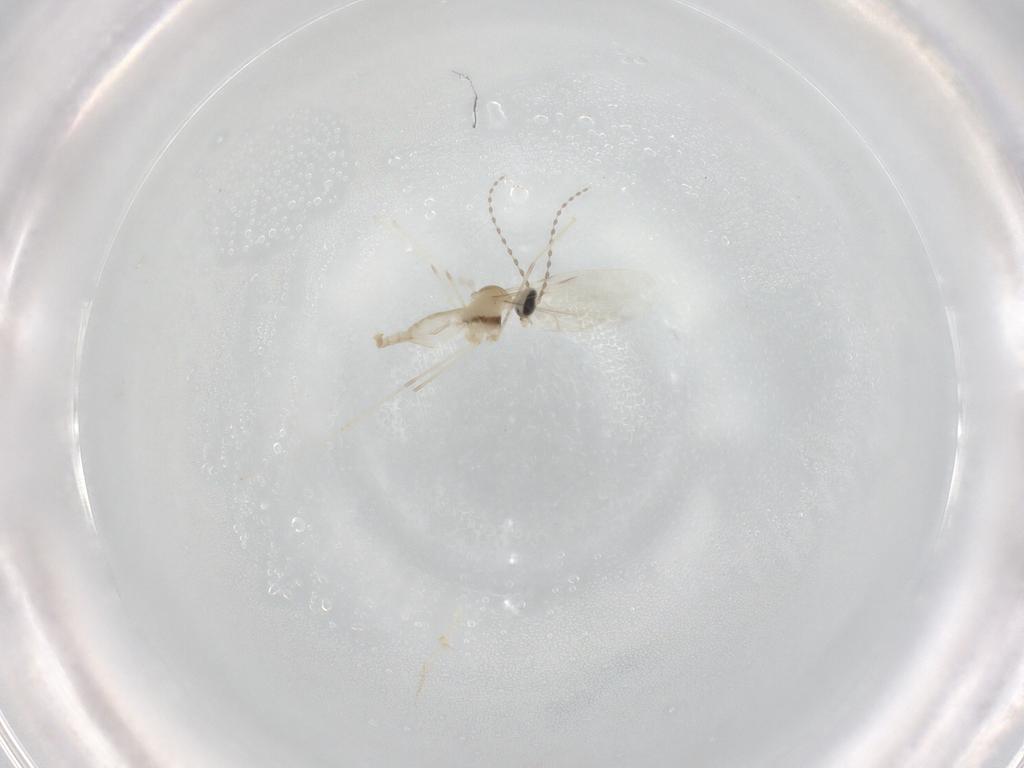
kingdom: Animalia
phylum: Arthropoda
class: Insecta
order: Diptera
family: Cecidomyiidae
